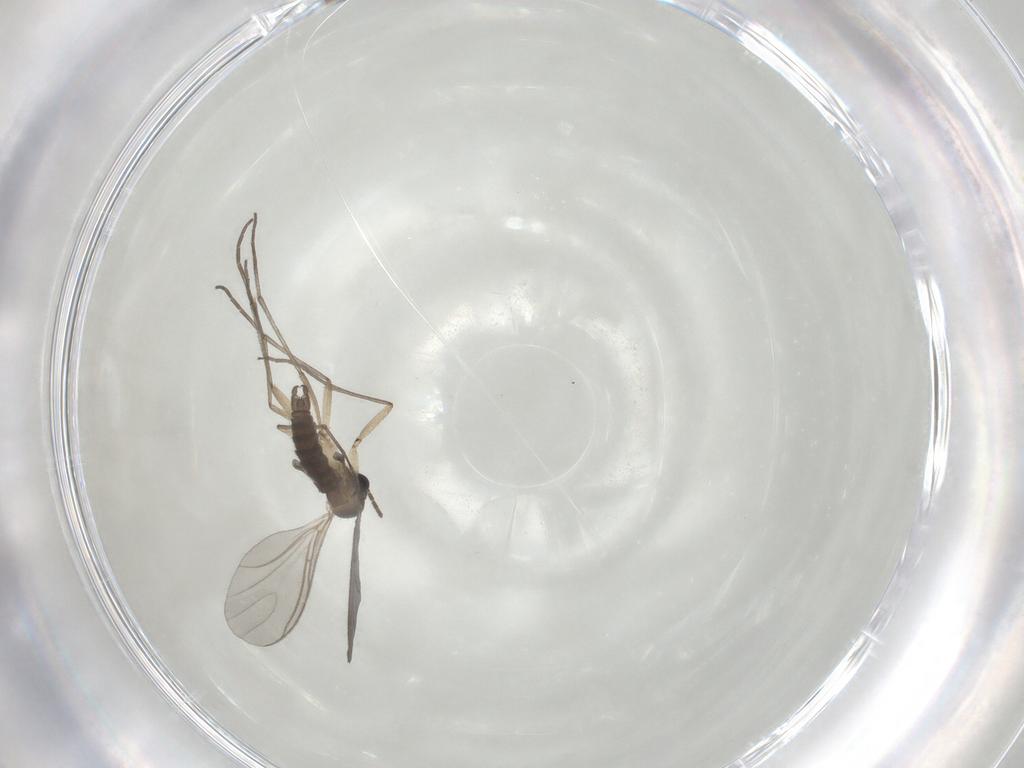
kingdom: Animalia
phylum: Arthropoda
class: Insecta
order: Diptera
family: Sciaridae
